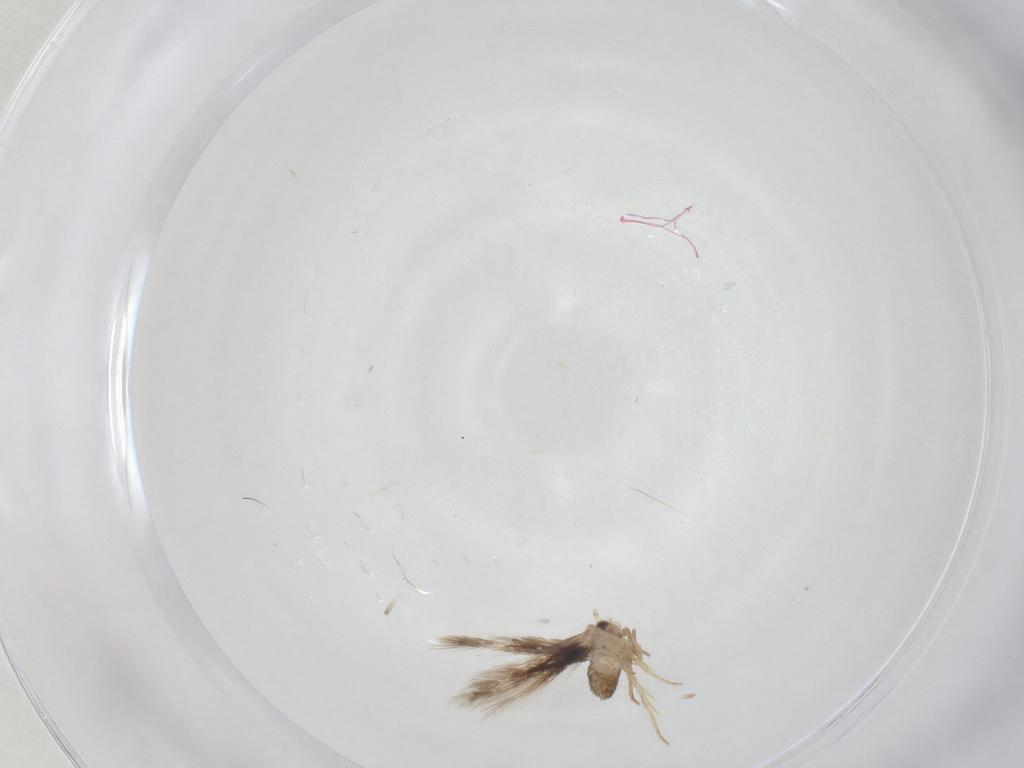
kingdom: Animalia
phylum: Arthropoda
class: Insecta
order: Lepidoptera
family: Nepticulidae
